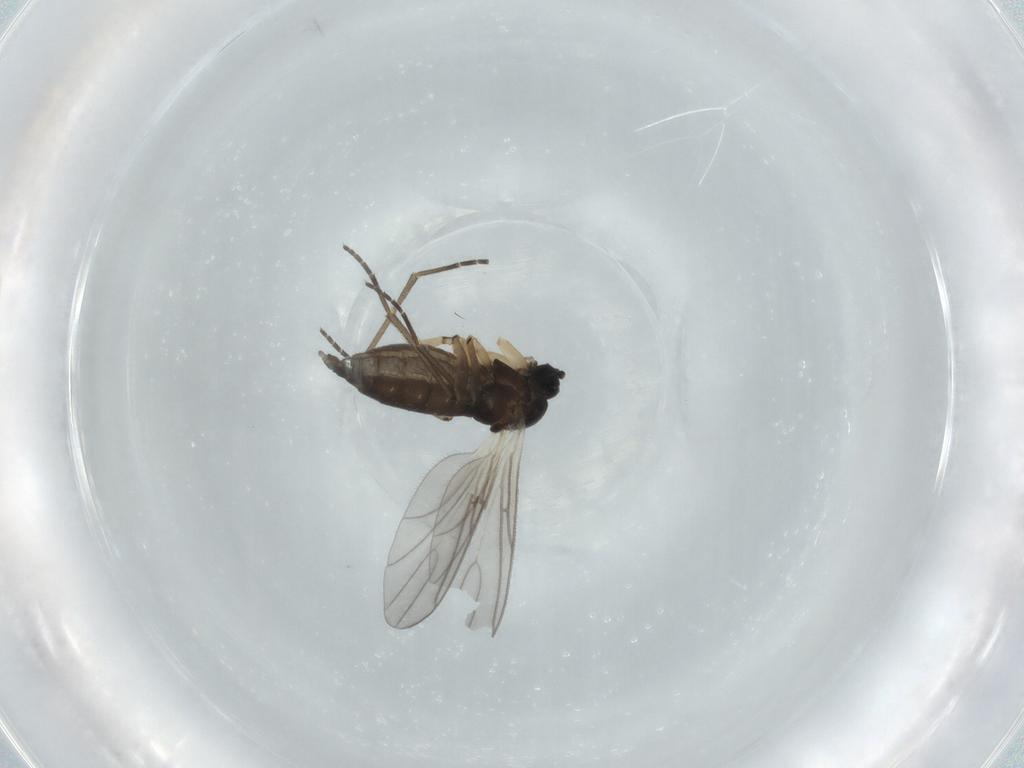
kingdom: Animalia
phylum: Arthropoda
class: Insecta
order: Diptera
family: Sciaridae
